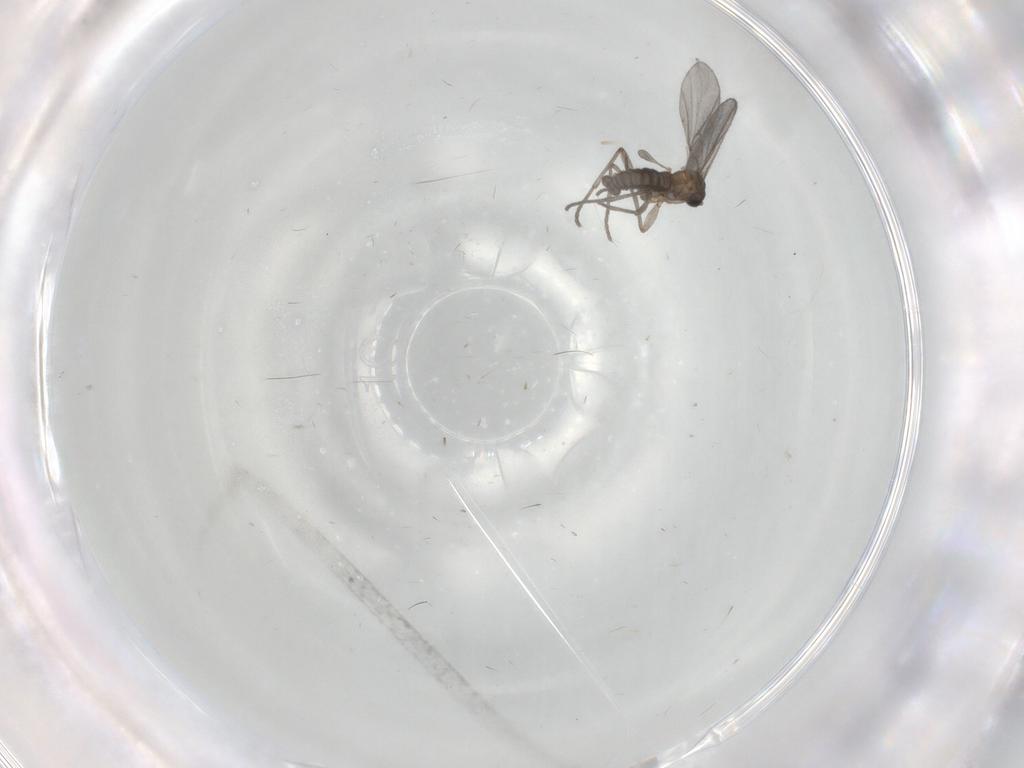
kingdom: Animalia
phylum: Arthropoda
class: Insecta
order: Diptera
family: Sciaridae
